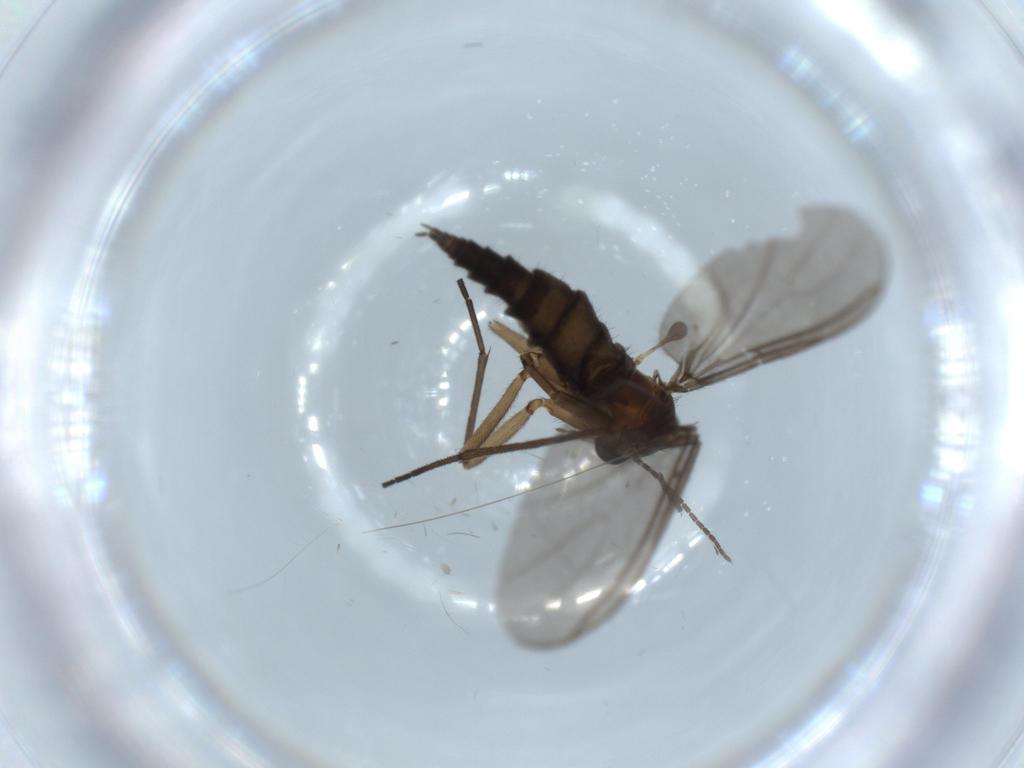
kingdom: Animalia
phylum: Arthropoda
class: Insecta
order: Diptera
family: Sciaridae
